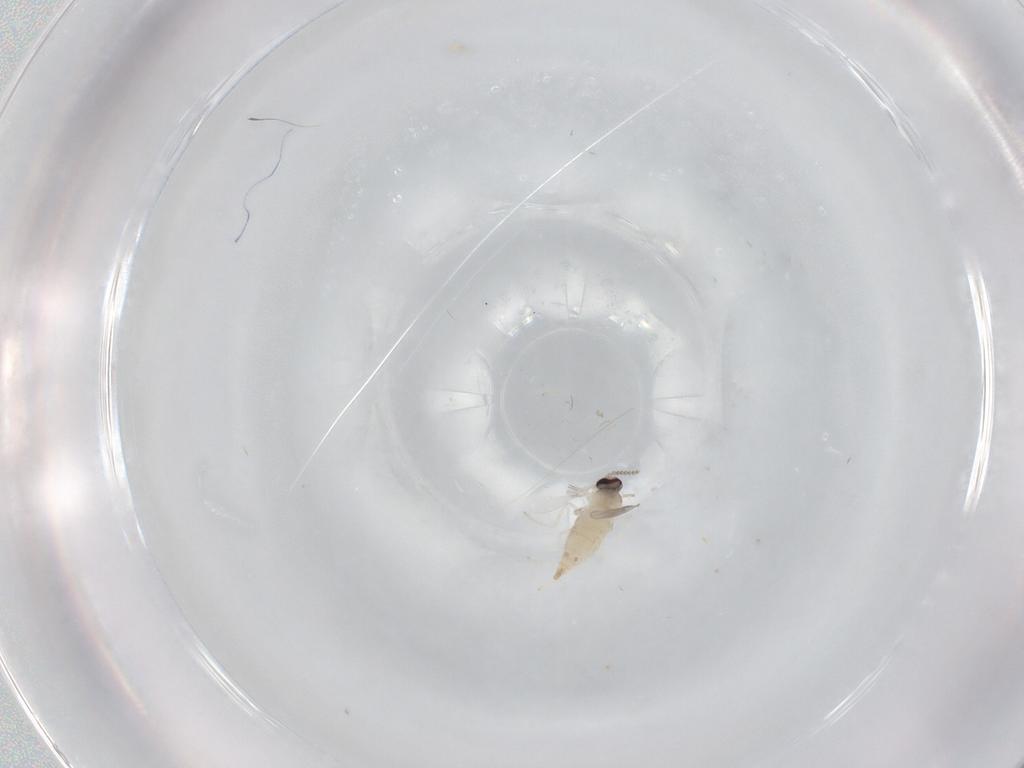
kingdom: Animalia
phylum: Arthropoda
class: Insecta
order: Diptera
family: Cecidomyiidae
